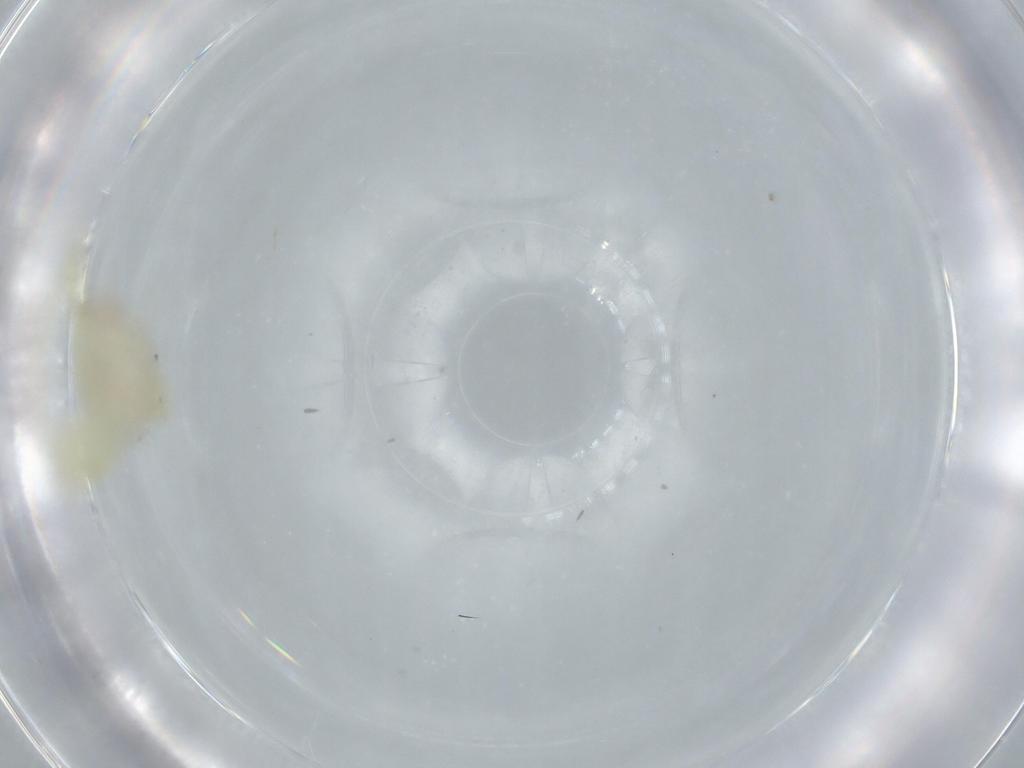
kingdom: Animalia
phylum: Arthropoda
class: Insecta
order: Hemiptera
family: Cicadellidae
